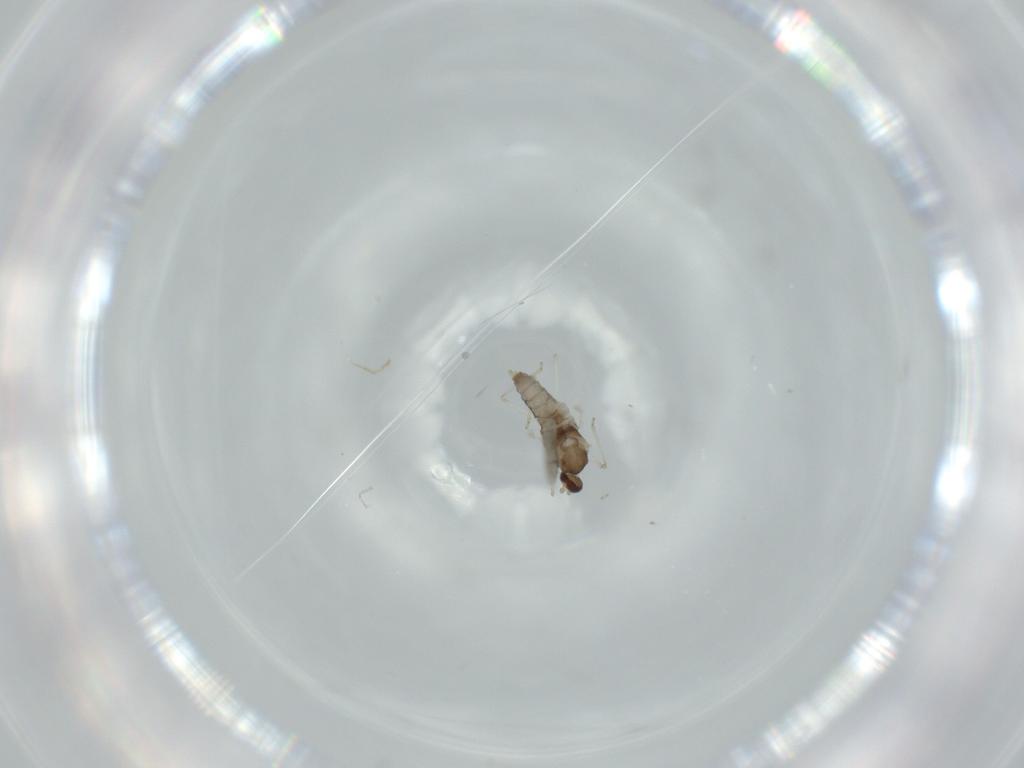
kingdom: Animalia
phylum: Arthropoda
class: Insecta
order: Diptera
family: Cecidomyiidae
